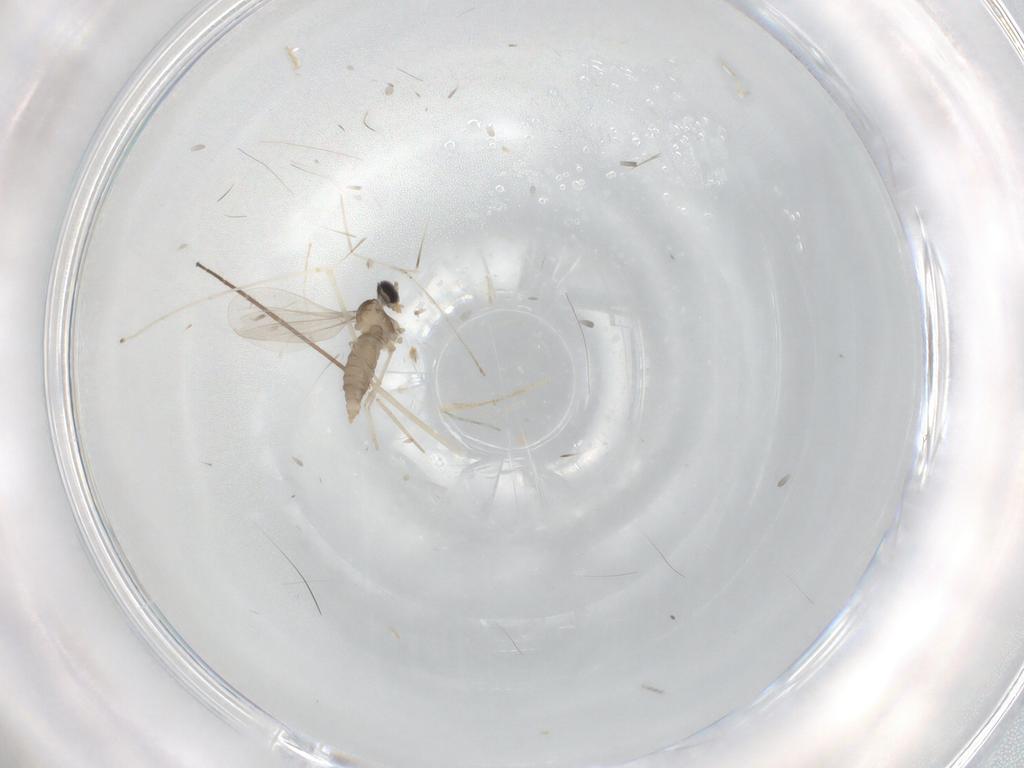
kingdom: Animalia
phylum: Arthropoda
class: Insecta
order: Diptera
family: Chironomidae
